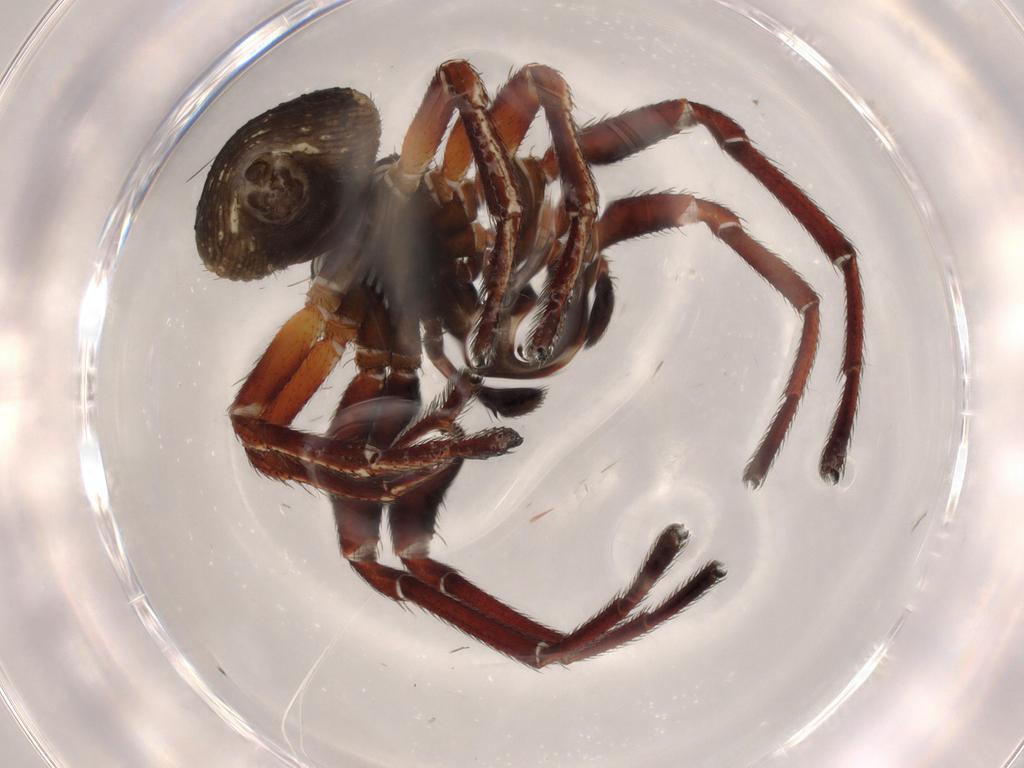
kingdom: Animalia
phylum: Arthropoda
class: Arachnida
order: Araneae
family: Thomisidae
